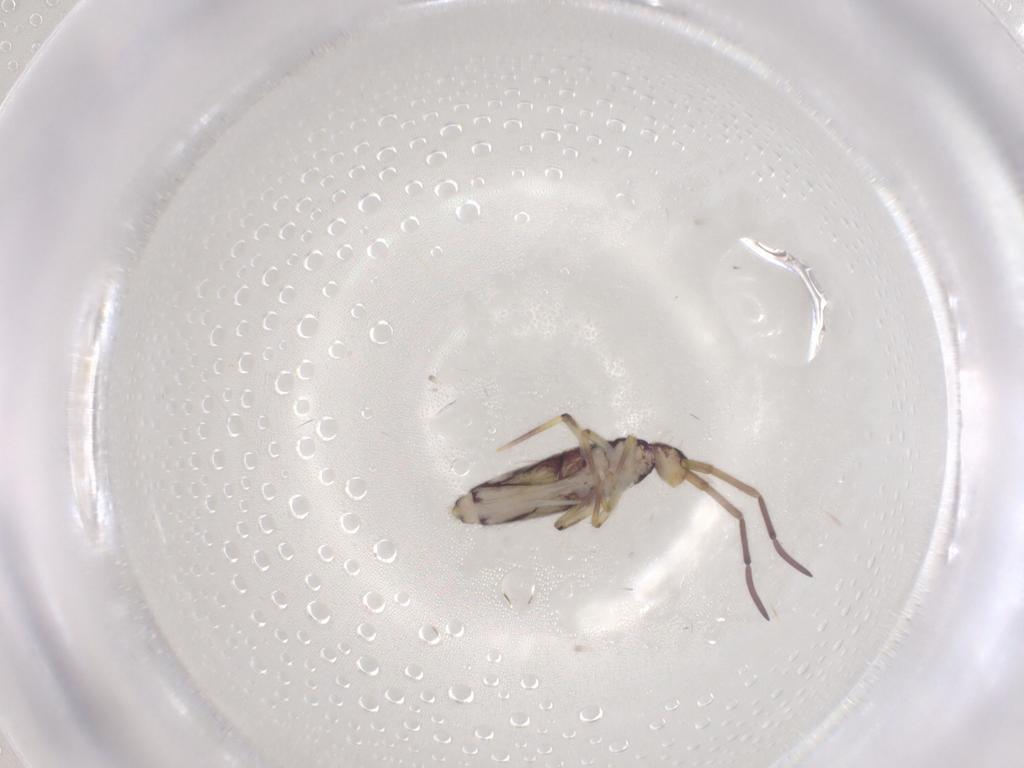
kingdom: Animalia
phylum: Arthropoda
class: Collembola
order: Entomobryomorpha
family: Entomobryidae
